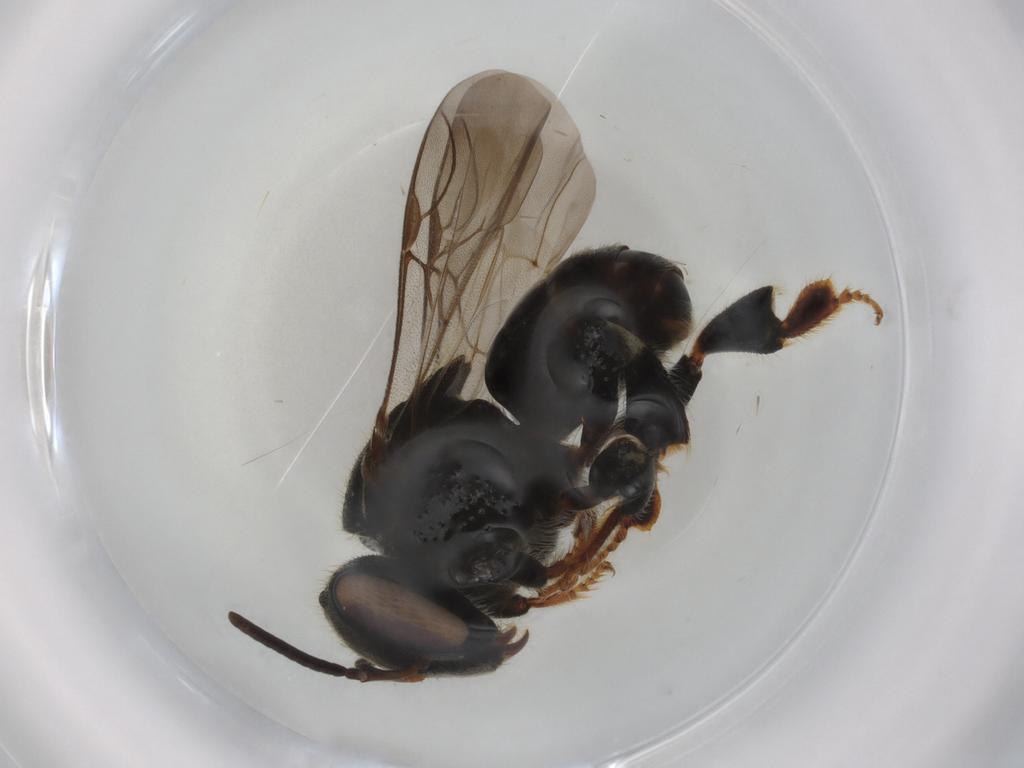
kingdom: Animalia
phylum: Arthropoda
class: Insecta
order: Hymenoptera
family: Apidae
